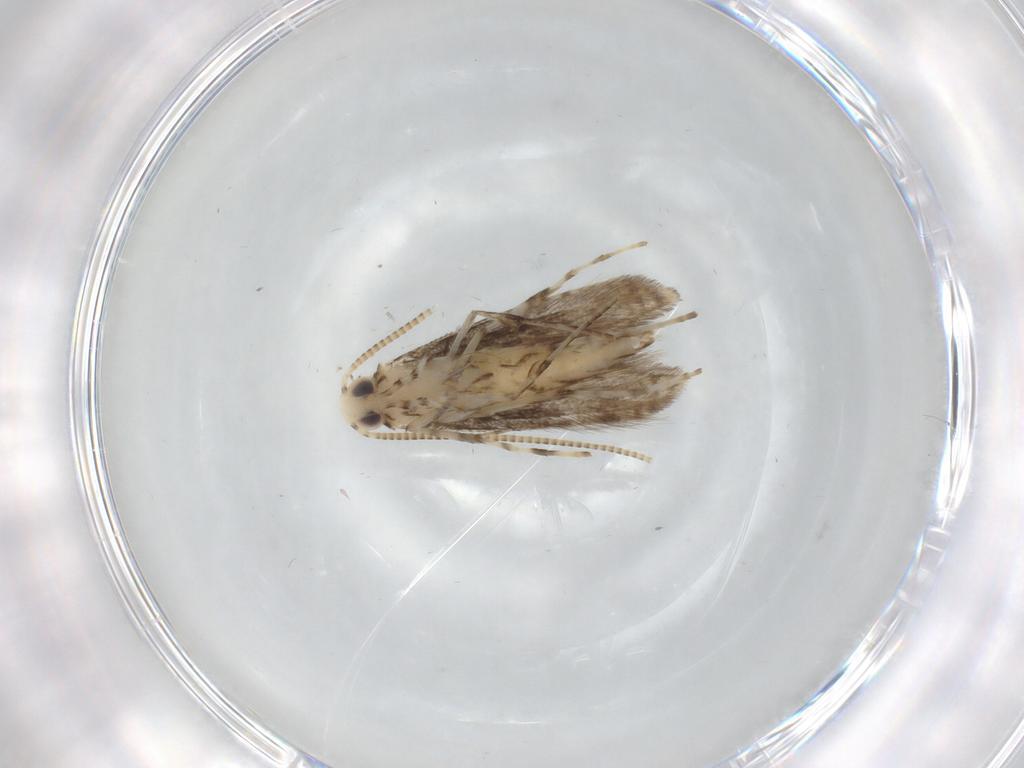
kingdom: Animalia
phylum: Arthropoda
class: Insecta
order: Lepidoptera
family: Gracillariidae
